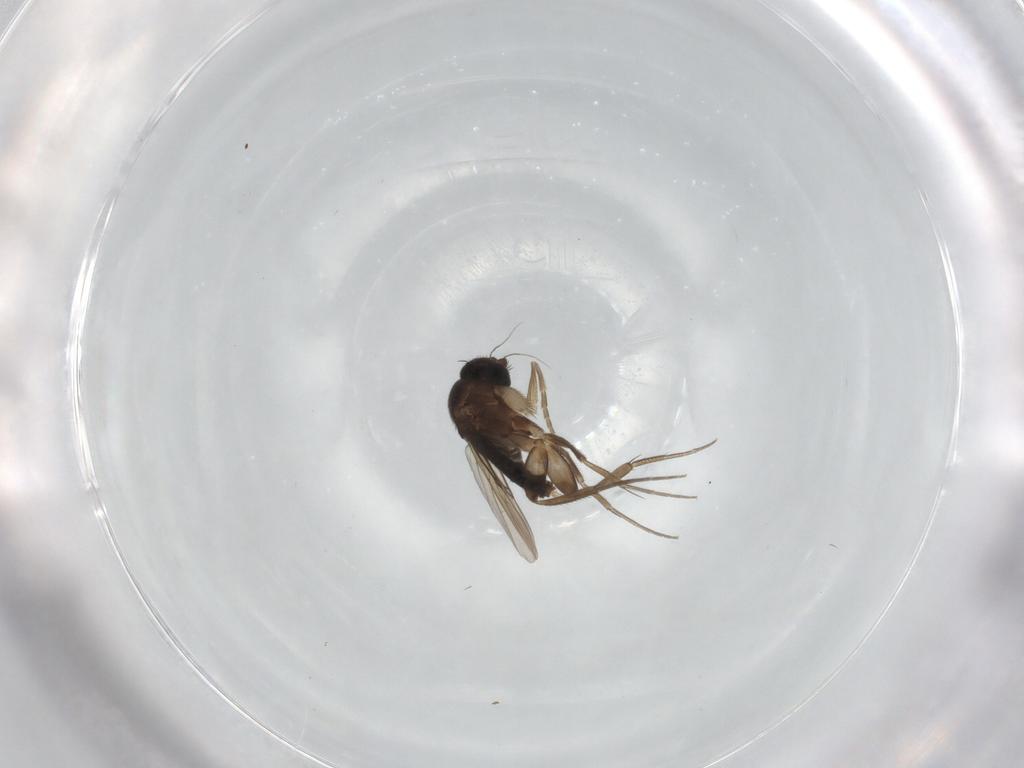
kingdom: Animalia
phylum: Arthropoda
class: Insecta
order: Diptera
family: Phoridae
